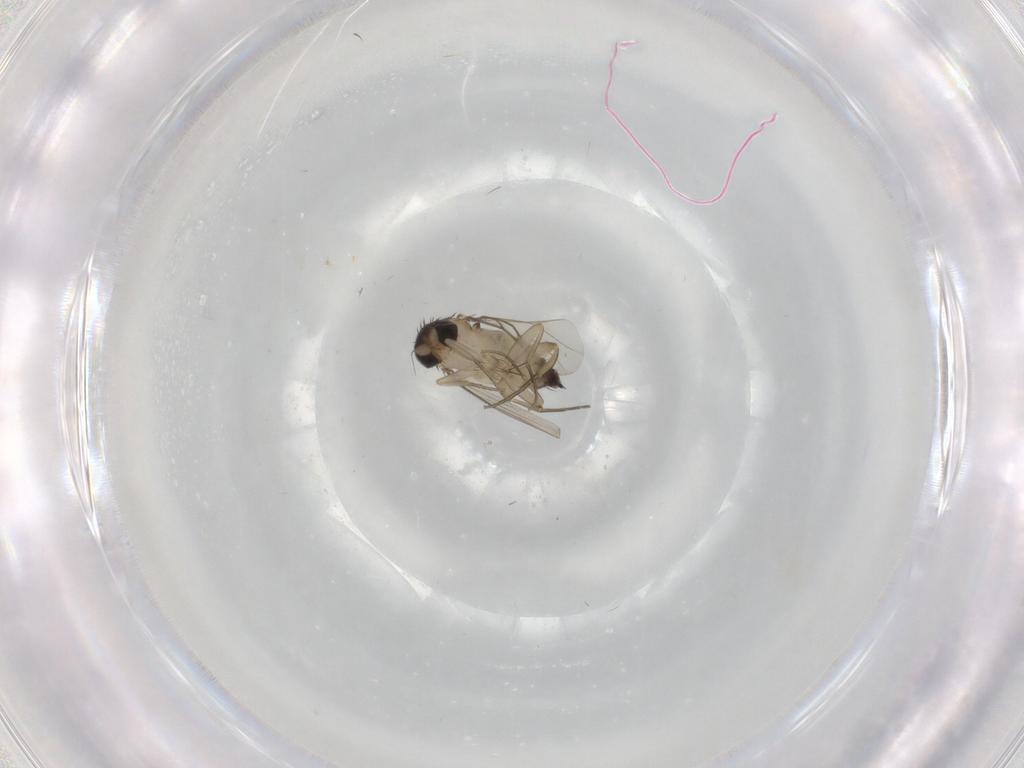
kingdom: Animalia
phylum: Arthropoda
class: Insecta
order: Diptera
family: Phoridae
